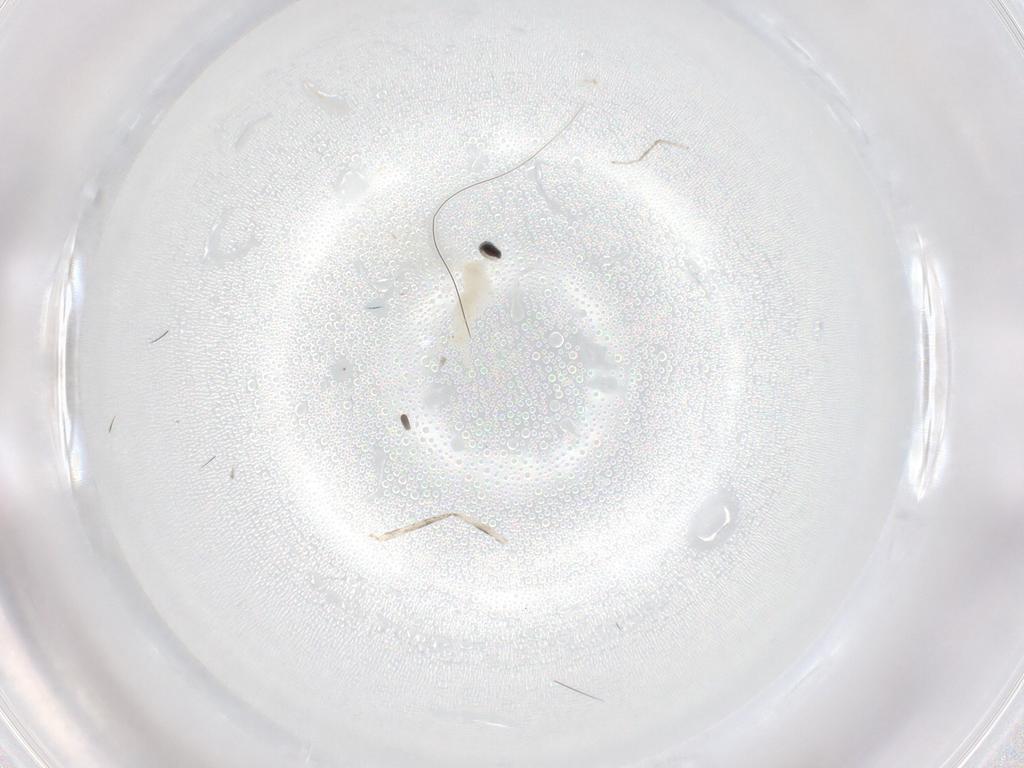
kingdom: Animalia
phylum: Arthropoda
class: Insecta
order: Diptera
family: Cecidomyiidae
